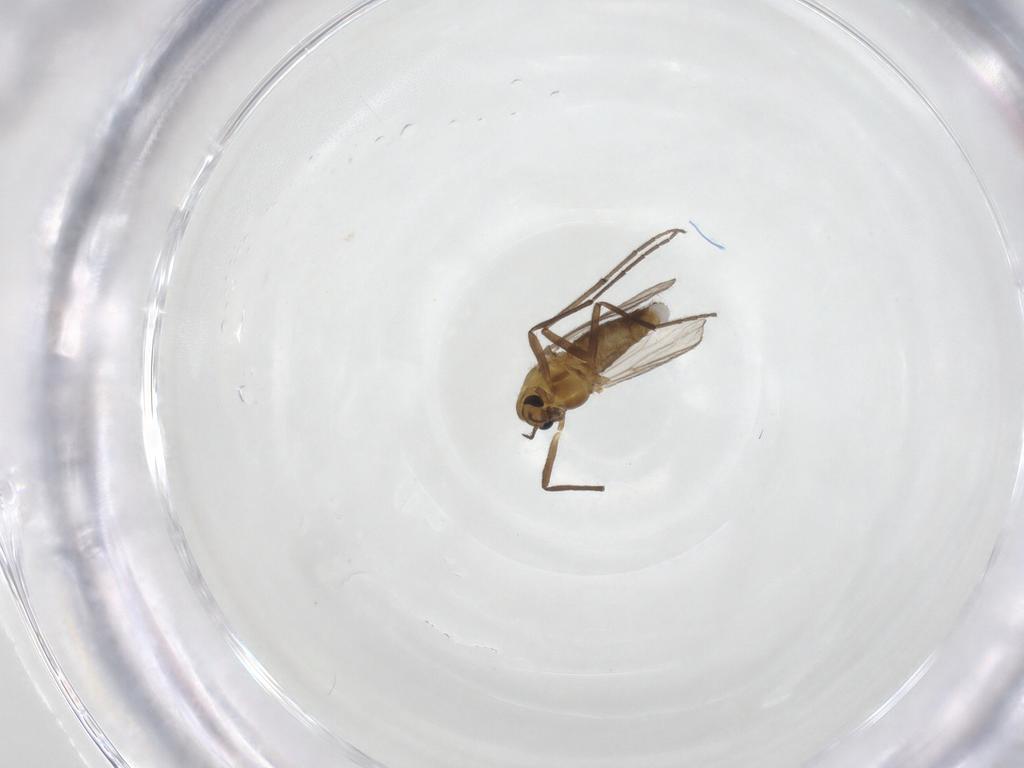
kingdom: Animalia
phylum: Arthropoda
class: Insecta
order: Diptera
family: Chironomidae
